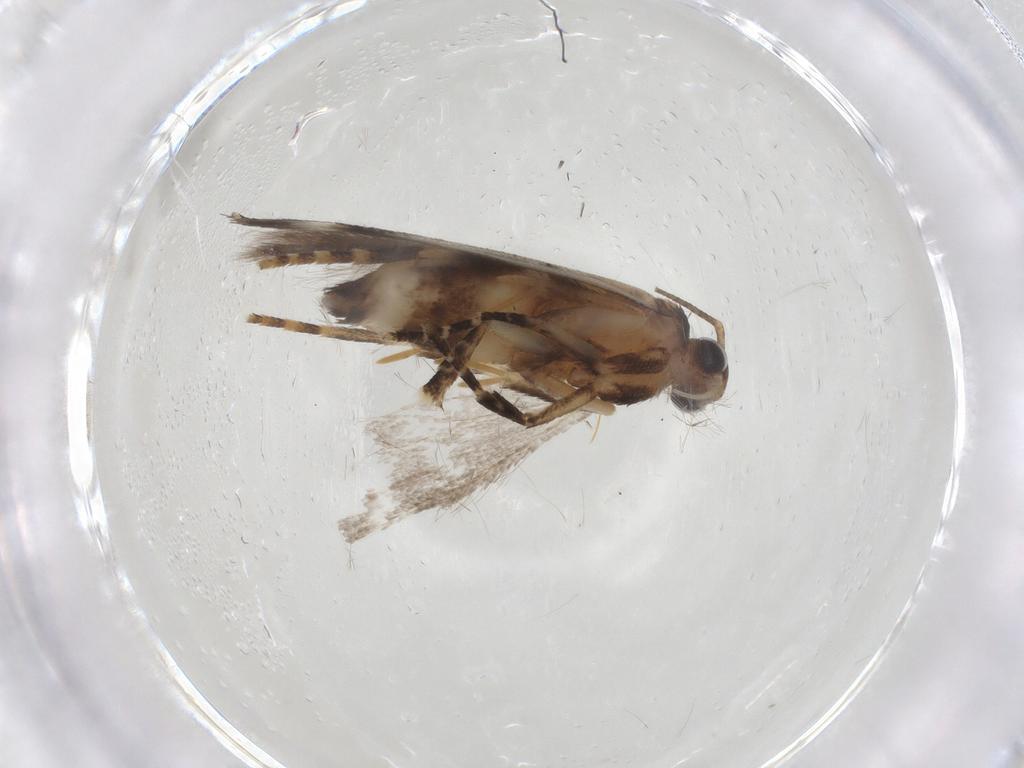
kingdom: Animalia
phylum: Arthropoda
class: Insecta
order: Lepidoptera
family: Gelechiidae
